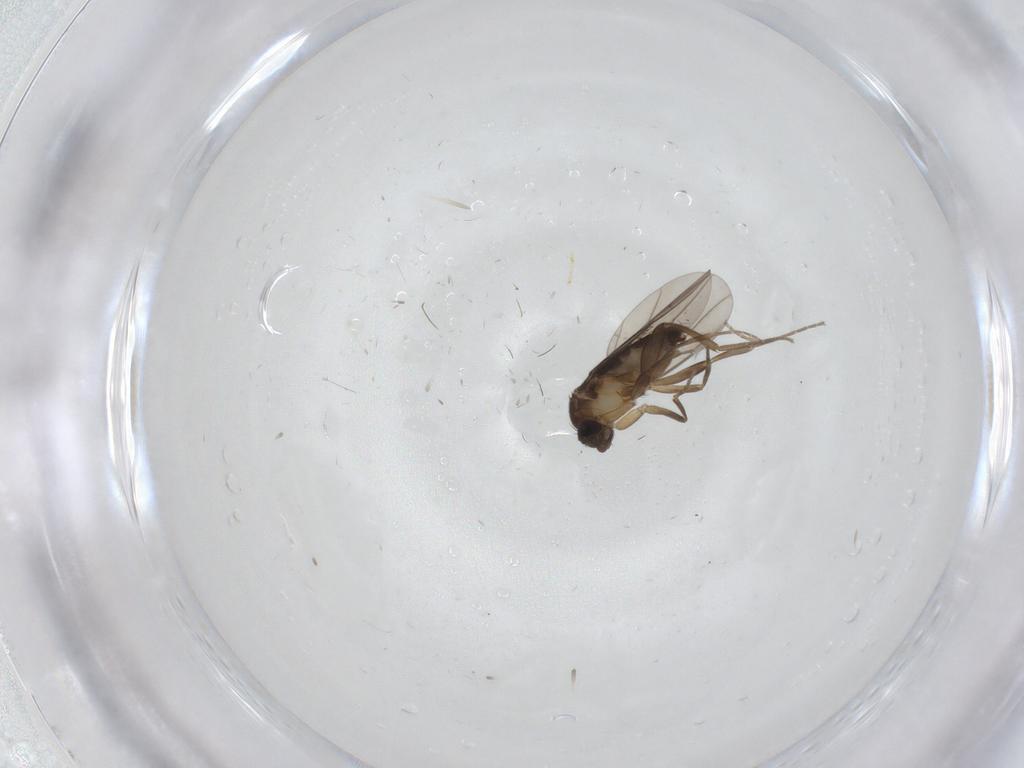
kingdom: Animalia
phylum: Arthropoda
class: Insecta
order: Diptera
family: Phoridae
